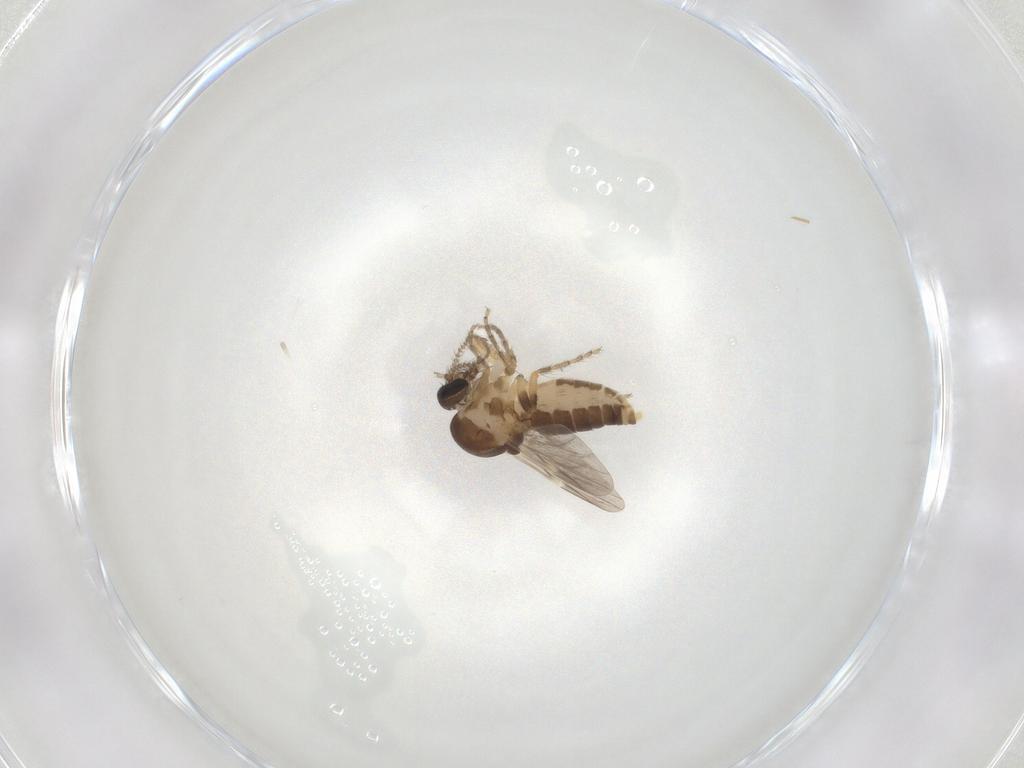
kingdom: Animalia
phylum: Arthropoda
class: Insecta
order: Diptera
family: Ceratopogonidae
